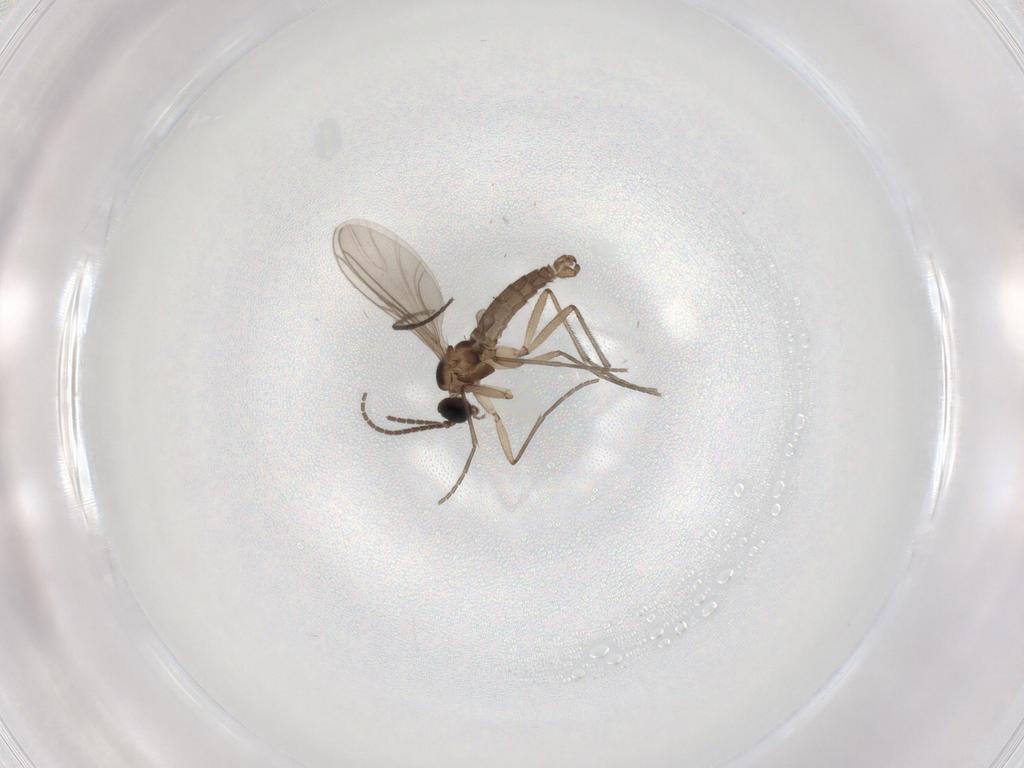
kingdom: Animalia
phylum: Arthropoda
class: Insecta
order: Diptera
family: Sciaridae
